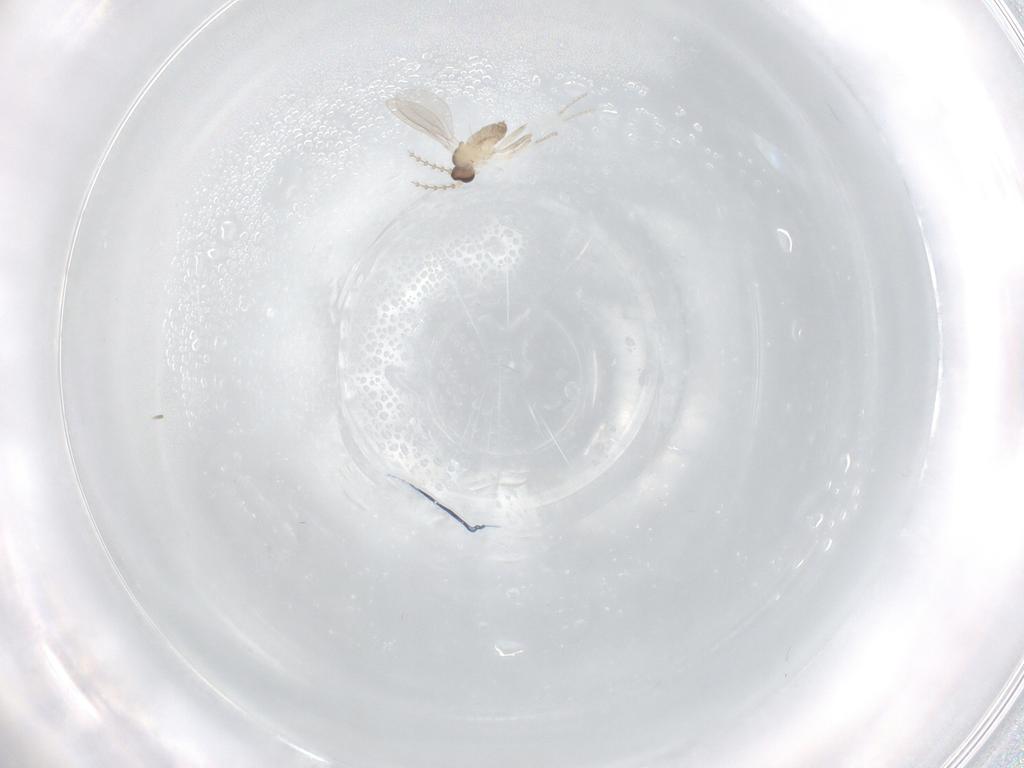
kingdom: Animalia
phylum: Arthropoda
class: Insecta
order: Diptera
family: Cecidomyiidae
